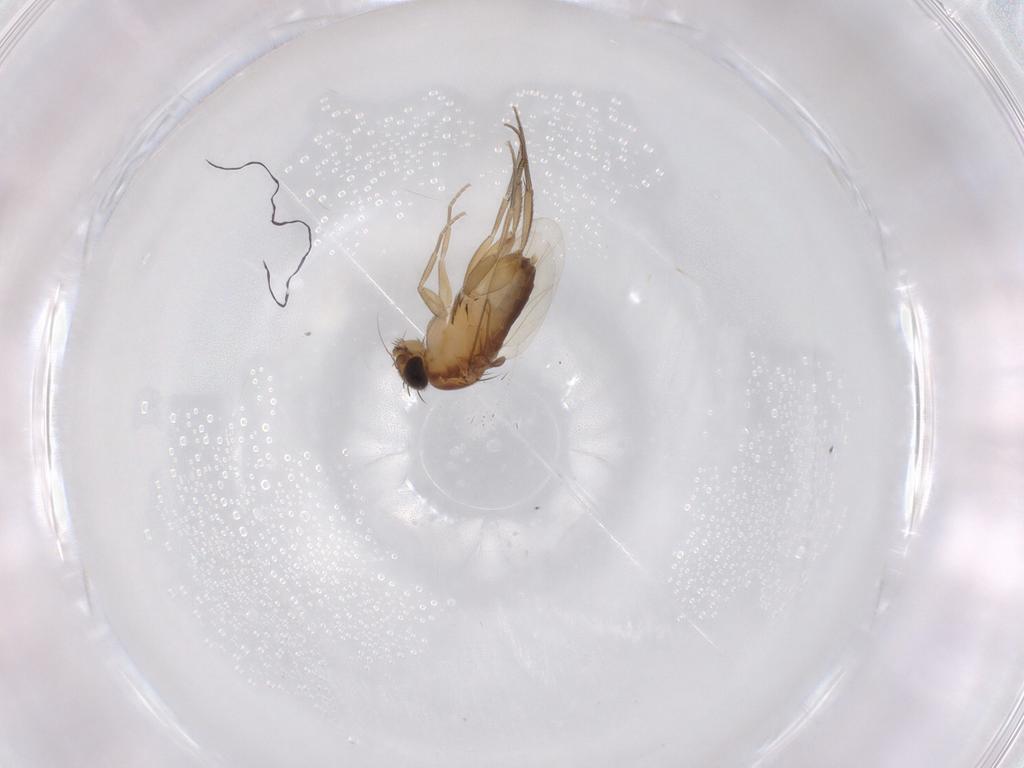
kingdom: Animalia
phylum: Arthropoda
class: Insecta
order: Diptera
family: Phoridae
